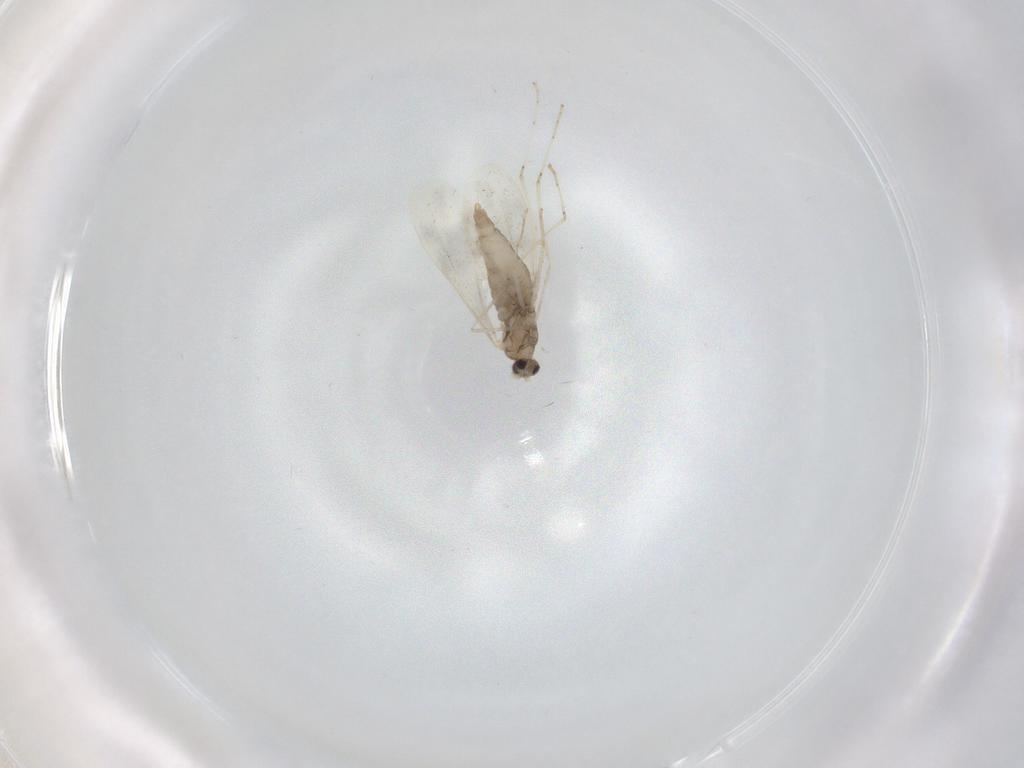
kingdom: Animalia
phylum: Arthropoda
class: Insecta
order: Diptera
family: Cecidomyiidae
